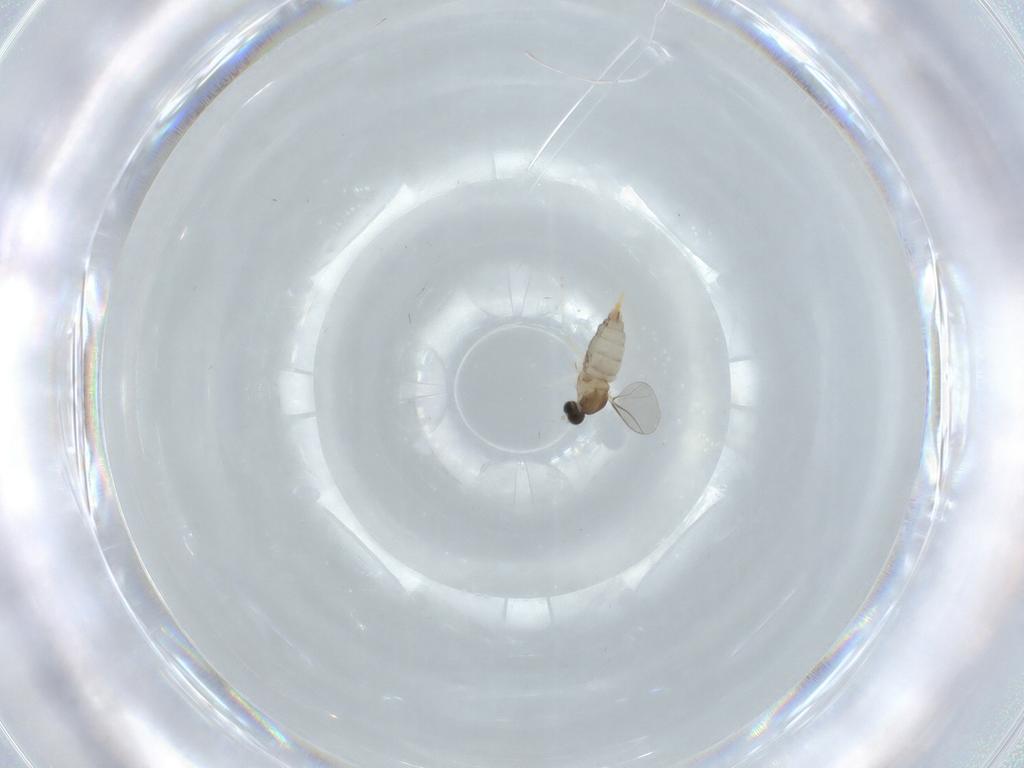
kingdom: Animalia
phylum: Arthropoda
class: Insecta
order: Diptera
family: Cecidomyiidae
